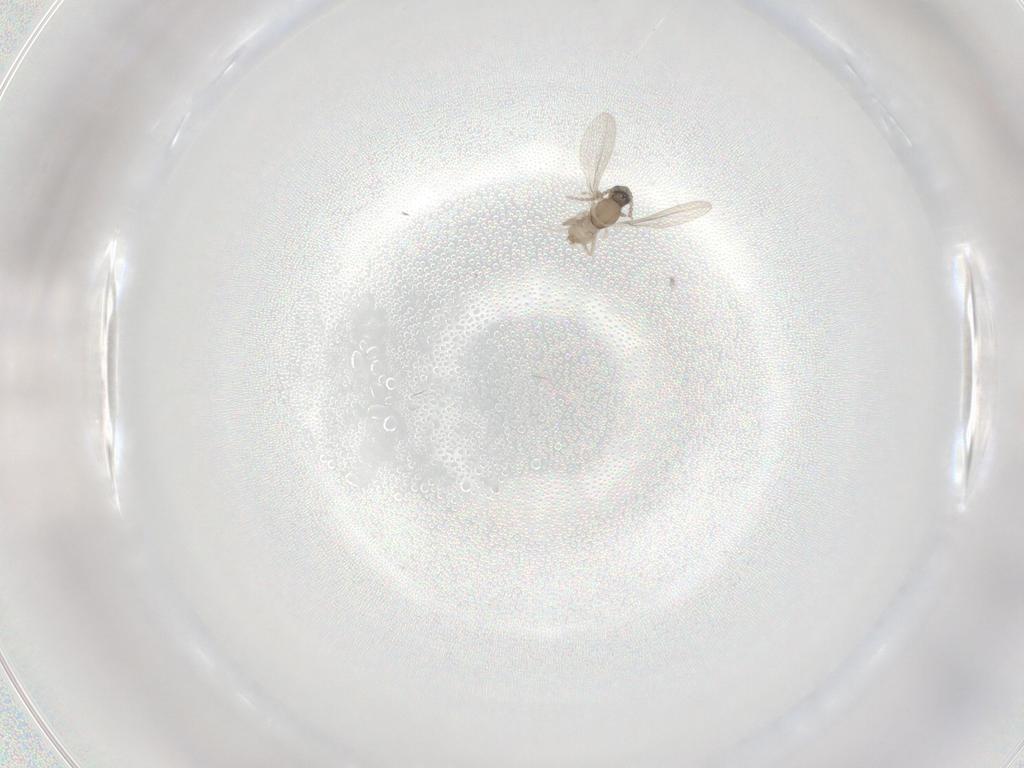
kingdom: Animalia
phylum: Arthropoda
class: Insecta
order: Diptera
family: Cecidomyiidae
